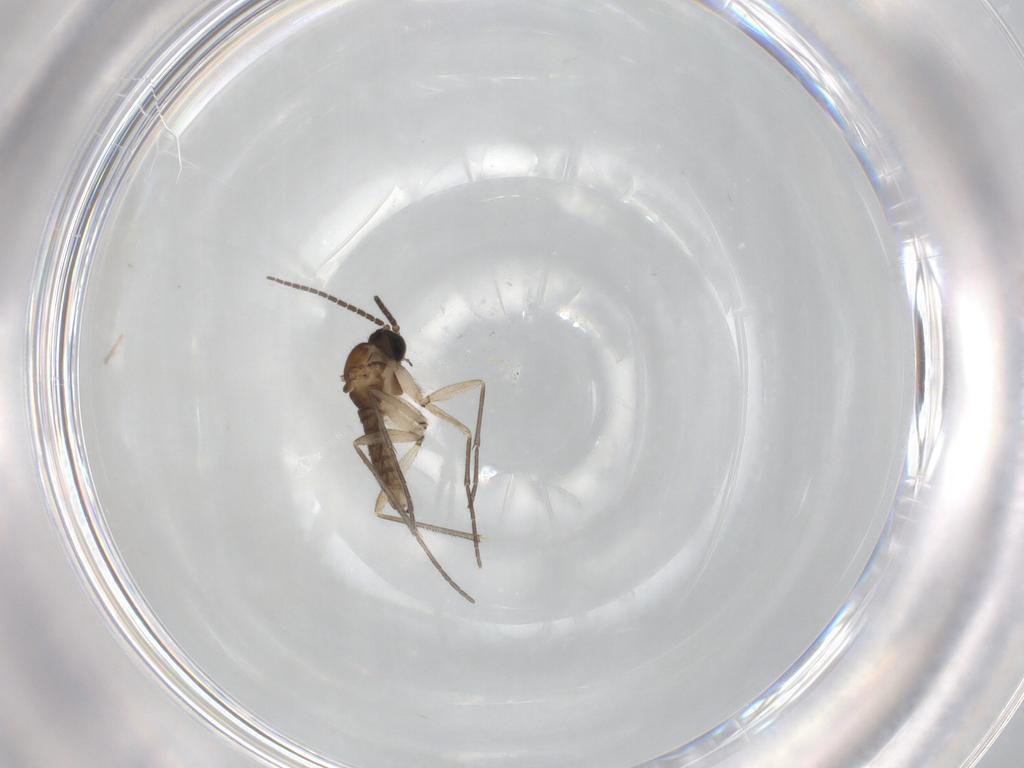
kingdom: Animalia
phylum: Arthropoda
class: Insecta
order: Diptera
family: Sciaridae
